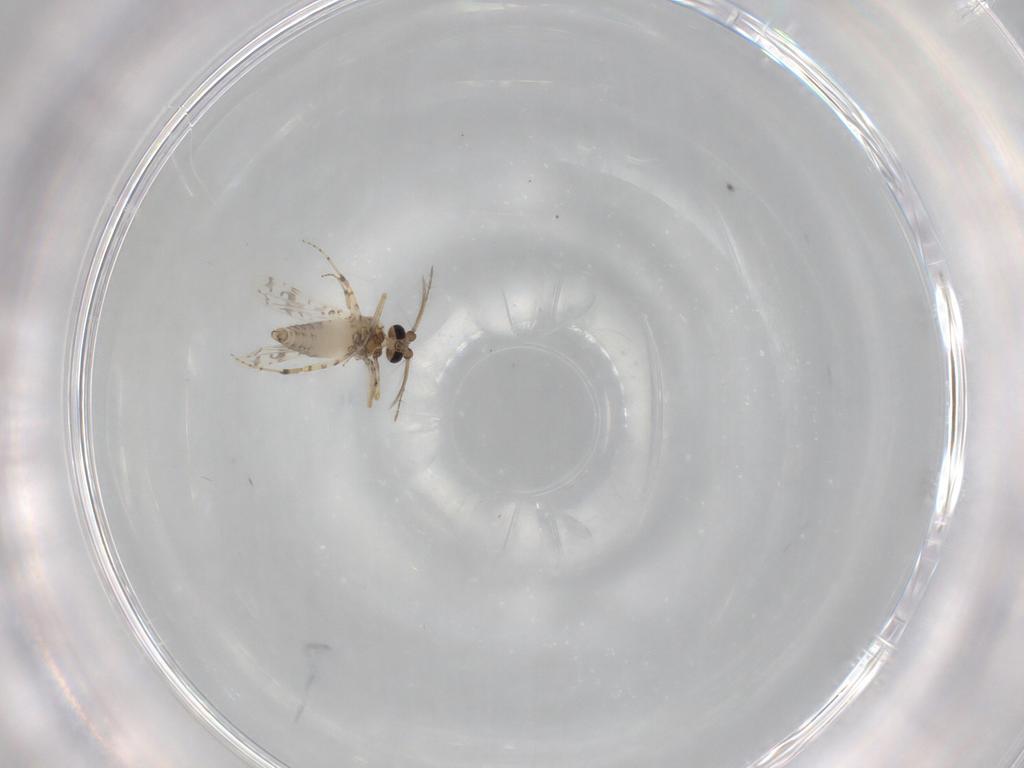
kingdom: Animalia
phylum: Arthropoda
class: Insecta
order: Diptera
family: Ceratopogonidae
